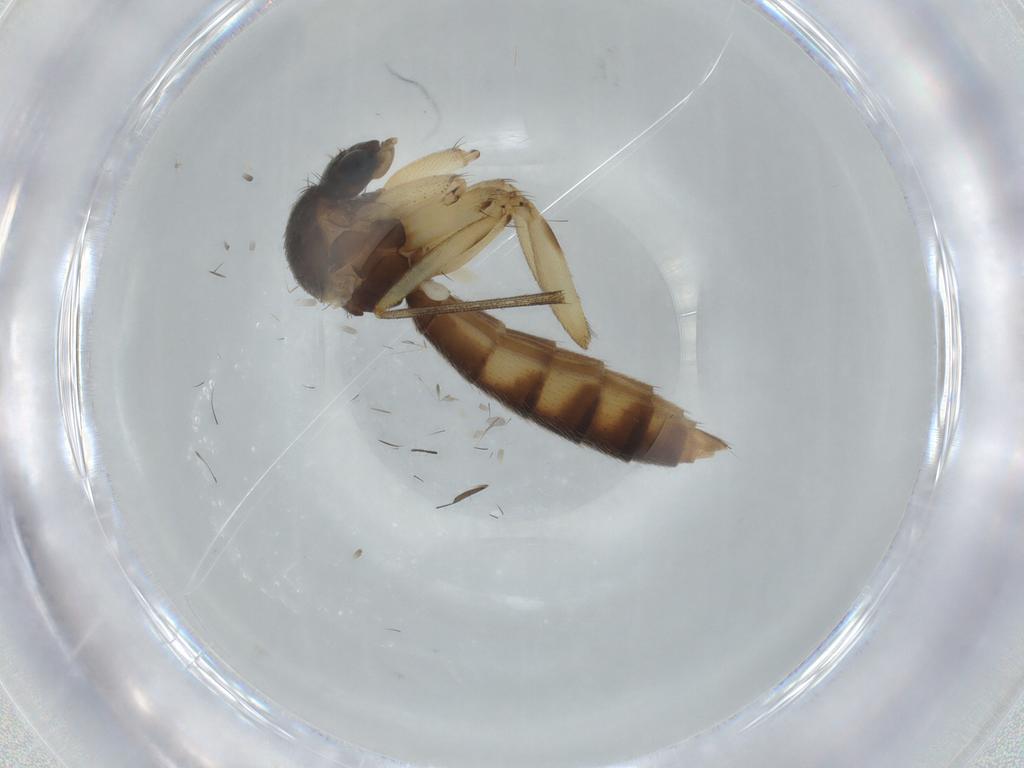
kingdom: Animalia
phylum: Arthropoda
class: Insecta
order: Diptera
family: Chironomidae
